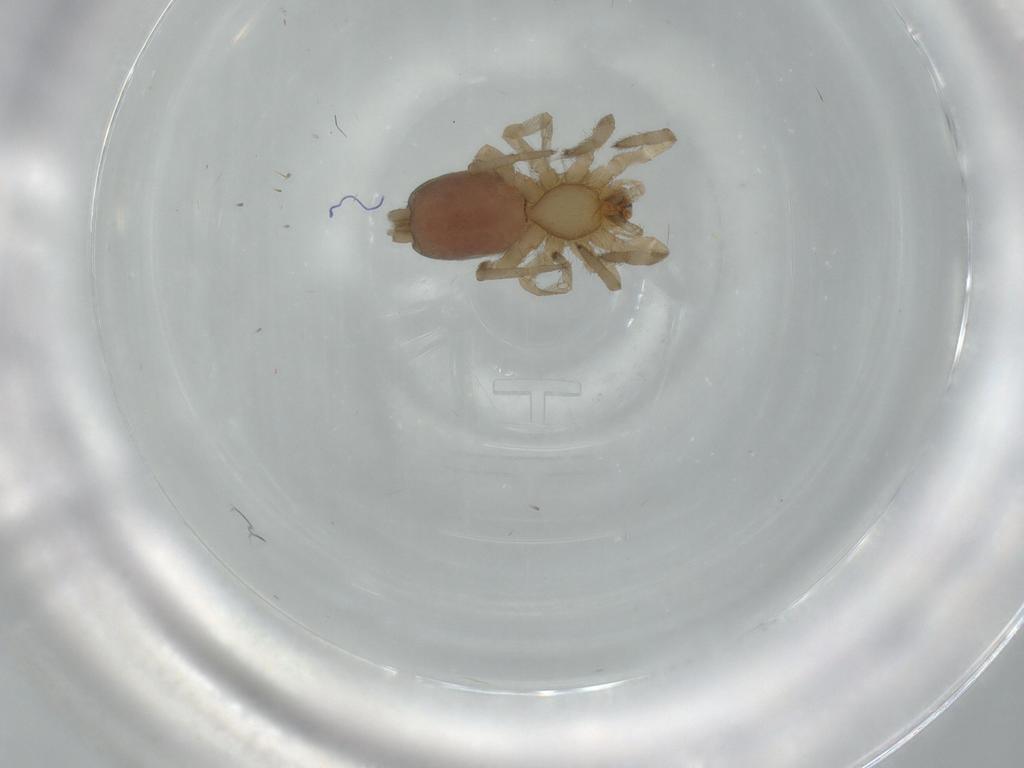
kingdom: Animalia
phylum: Arthropoda
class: Arachnida
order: Araneae
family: Gnaphosidae
